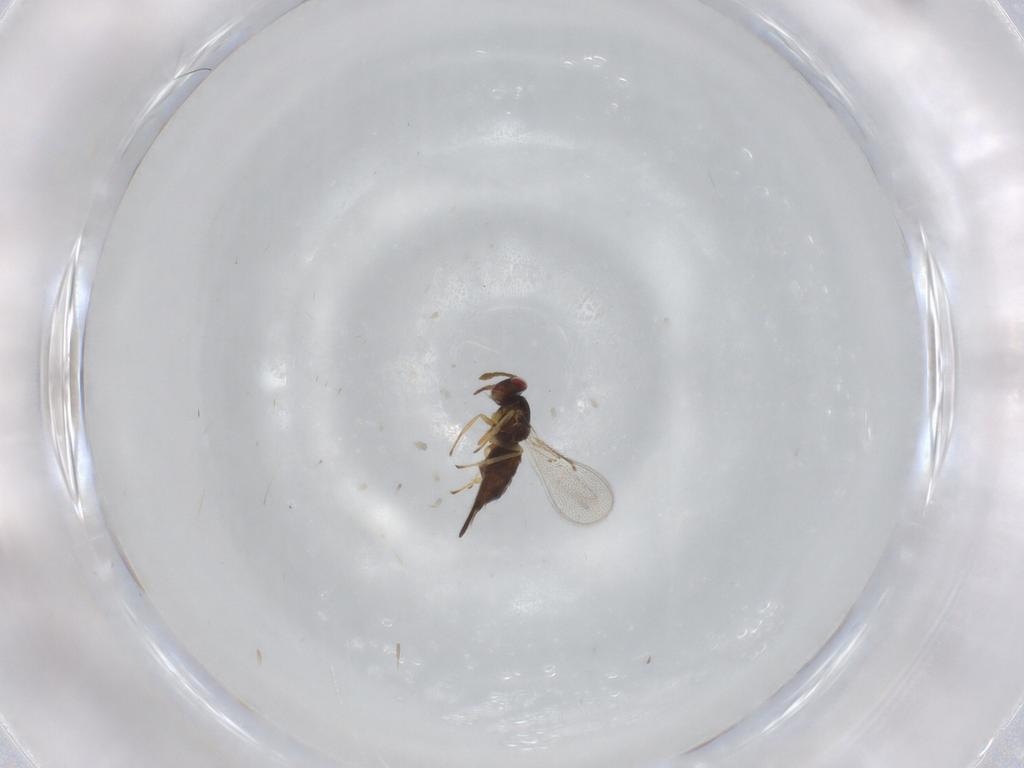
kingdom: Animalia
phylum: Arthropoda
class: Insecta
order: Hymenoptera
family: Eulophidae
